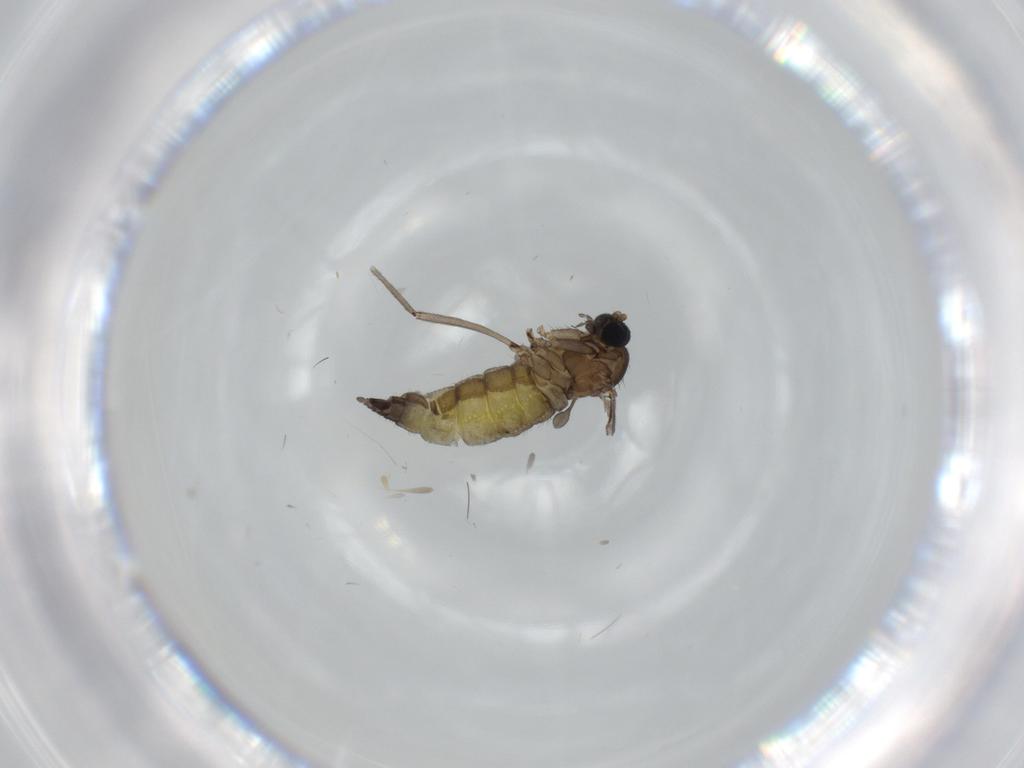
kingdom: Animalia
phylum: Arthropoda
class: Insecta
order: Diptera
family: Sciaridae
